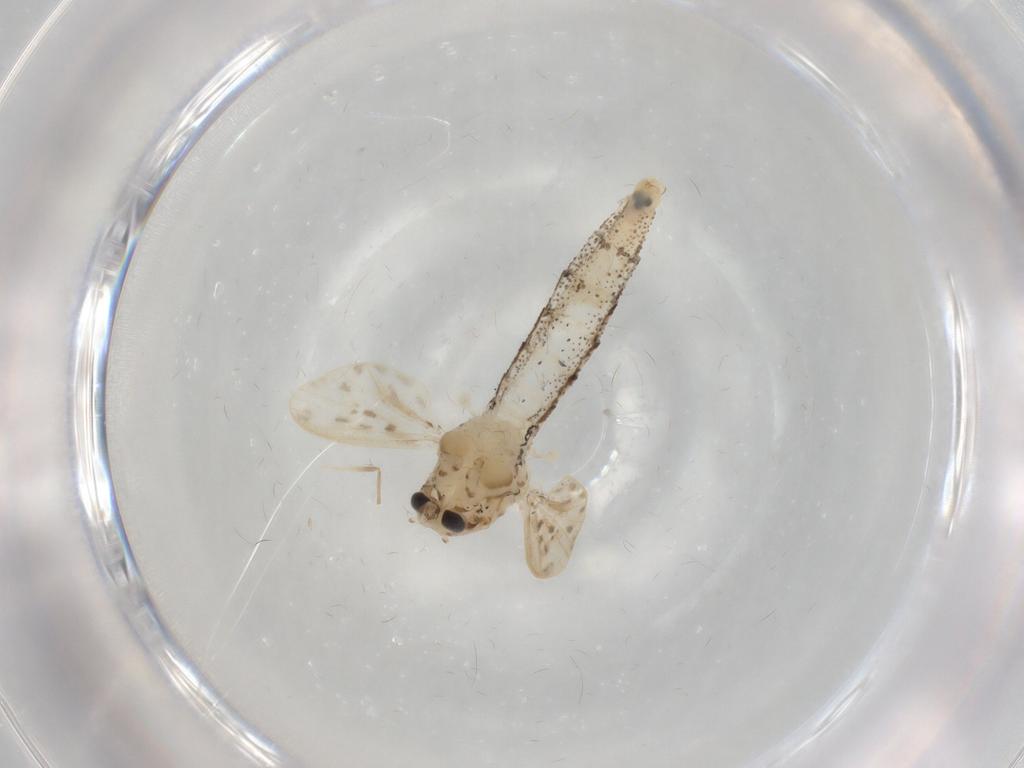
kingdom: Animalia
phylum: Arthropoda
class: Insecta
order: Diptera
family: Chaoboridae
